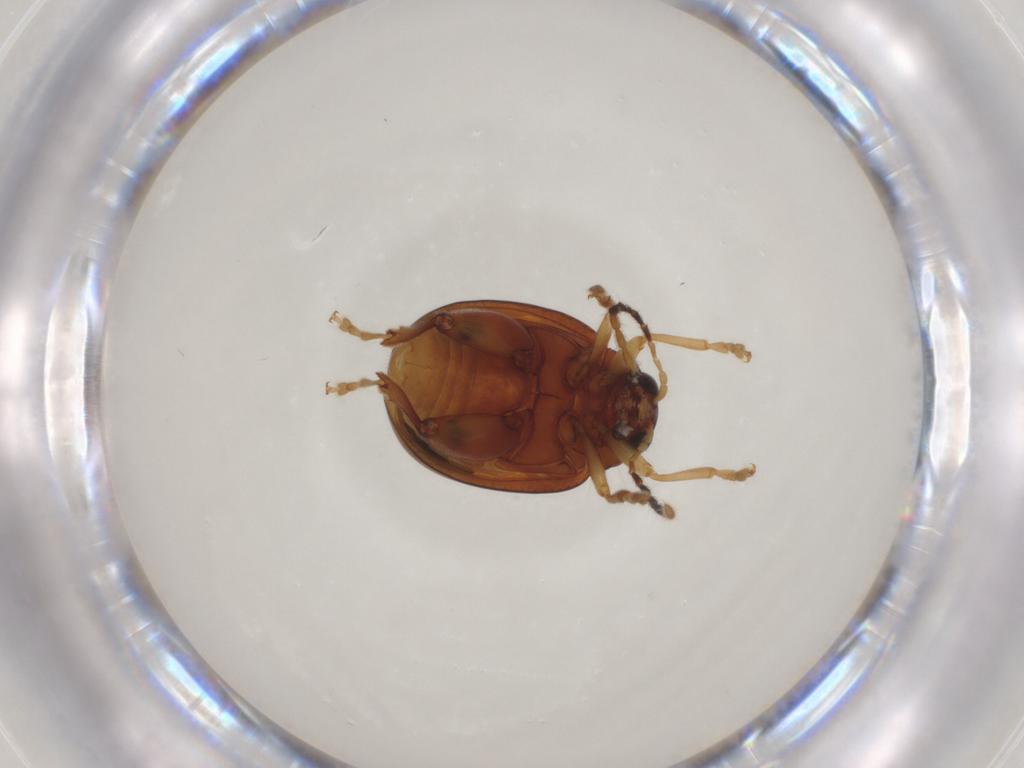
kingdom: Animalia
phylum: Arthropoda
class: Insecta
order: Coleoptera
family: Chrysomelidae
